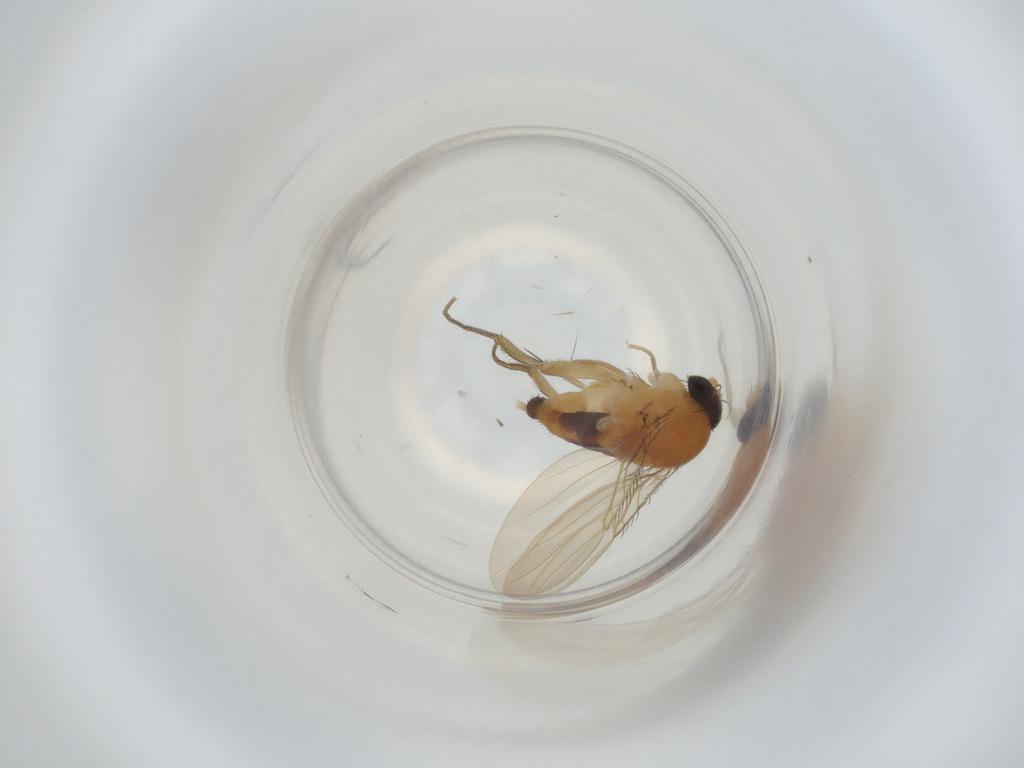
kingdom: Animalia
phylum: Arthropoda
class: Insecta
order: Diptera
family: Phoridae
